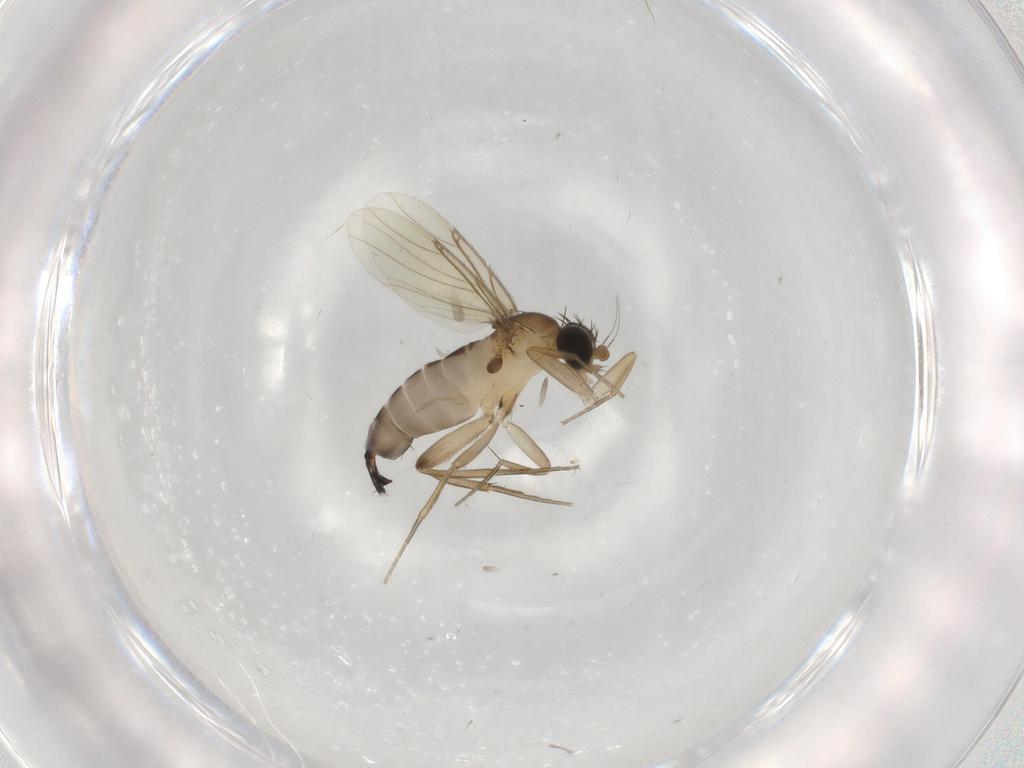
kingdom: Animalia
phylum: Arthropoda
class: Insecta
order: Diptera
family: Phoridae
